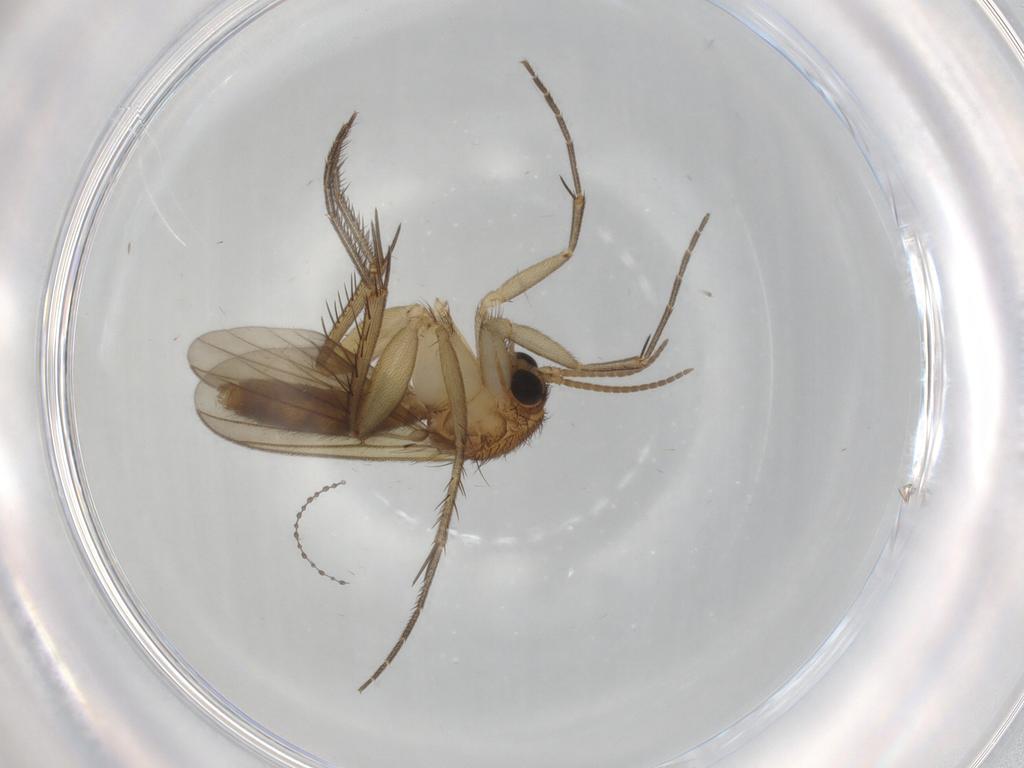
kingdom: Animalia
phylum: Arthropoda
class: Insecta
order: Diptera
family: Mycetophilidae
